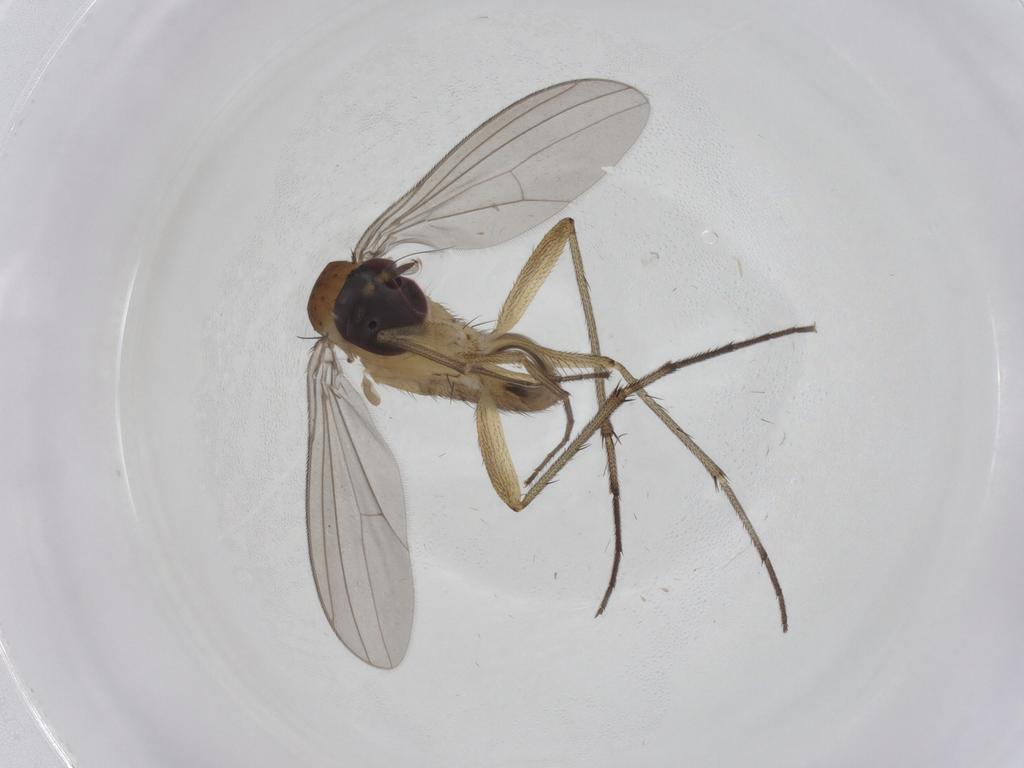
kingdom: Animalia
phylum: Arthropoda
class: Insecta
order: Diptera
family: Dolichopodidae
